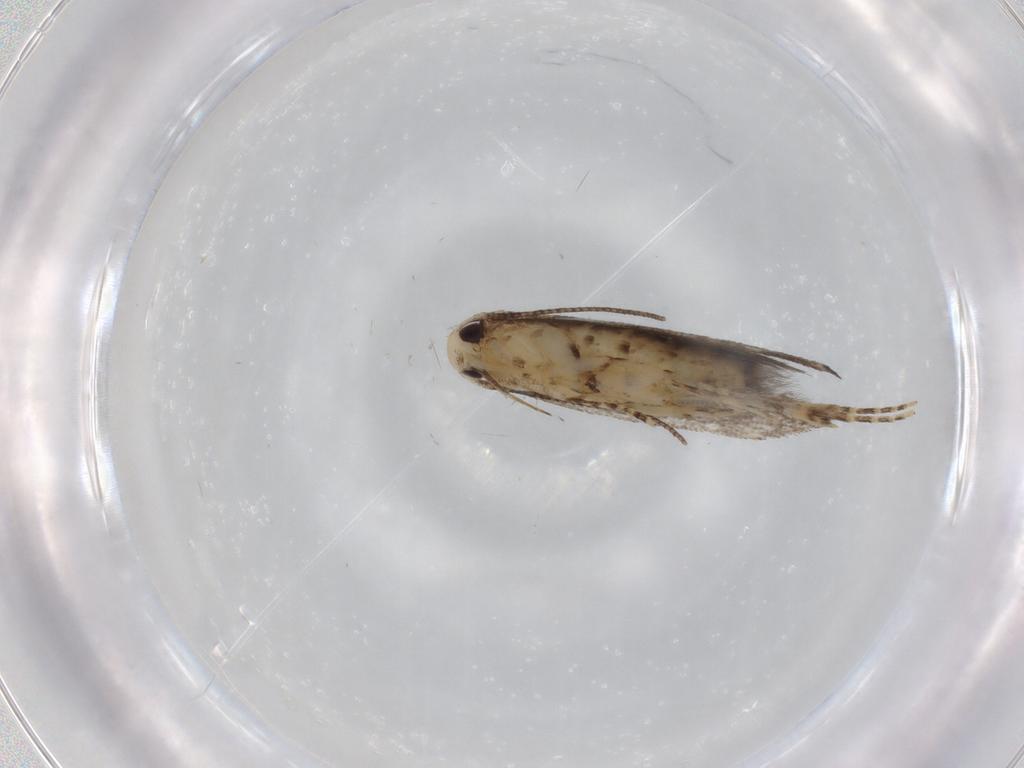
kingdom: Animalia
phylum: Arthropoda
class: Insecta
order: Lepidoptera
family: Cosmopterigidae
